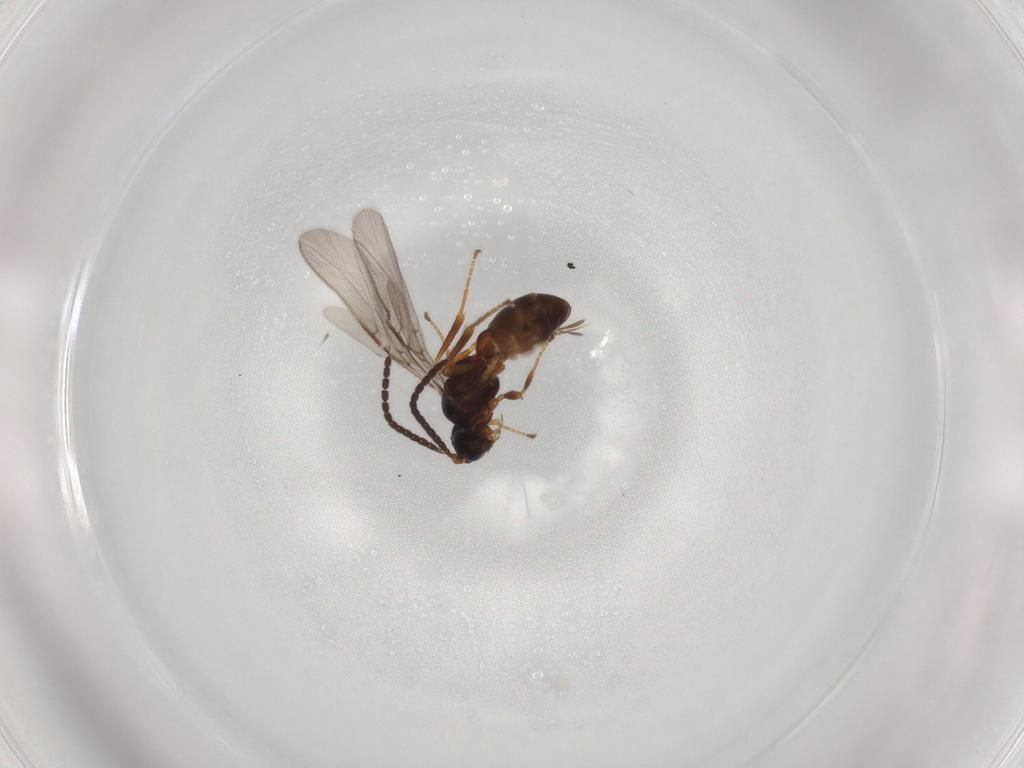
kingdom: Animalia
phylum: Arthropoda
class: Insecta
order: Hymenoptera
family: Braconidae
